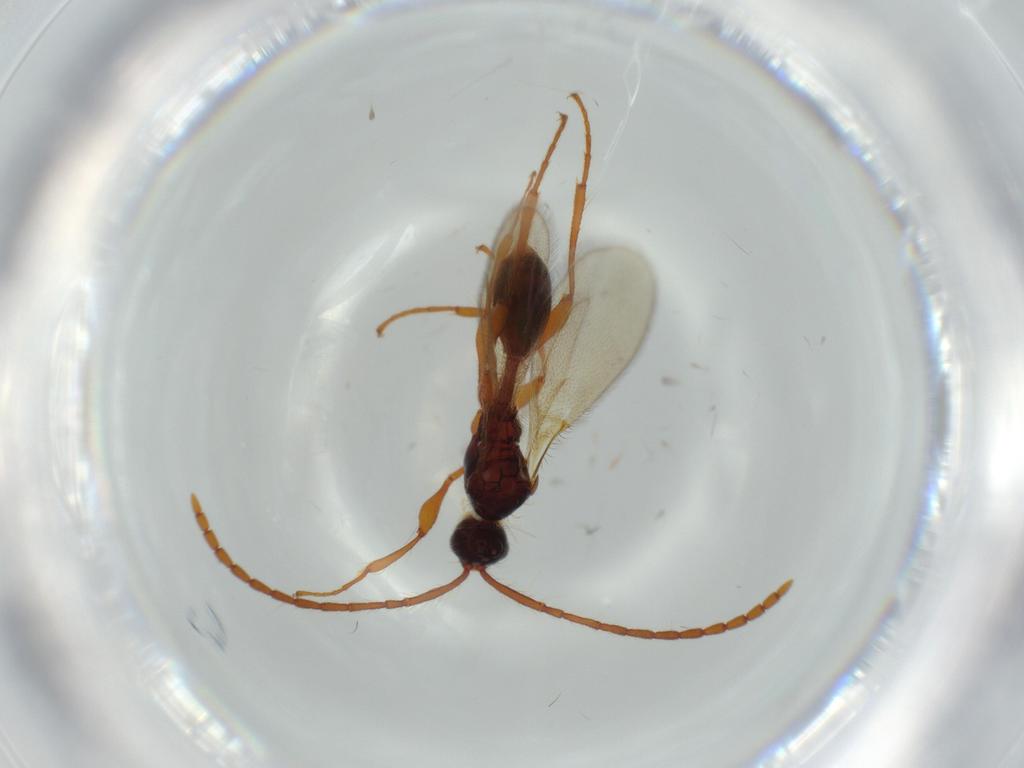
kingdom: Animalia
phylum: Arthropoda
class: Insecta
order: Hymenoptera
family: Diapriidae
